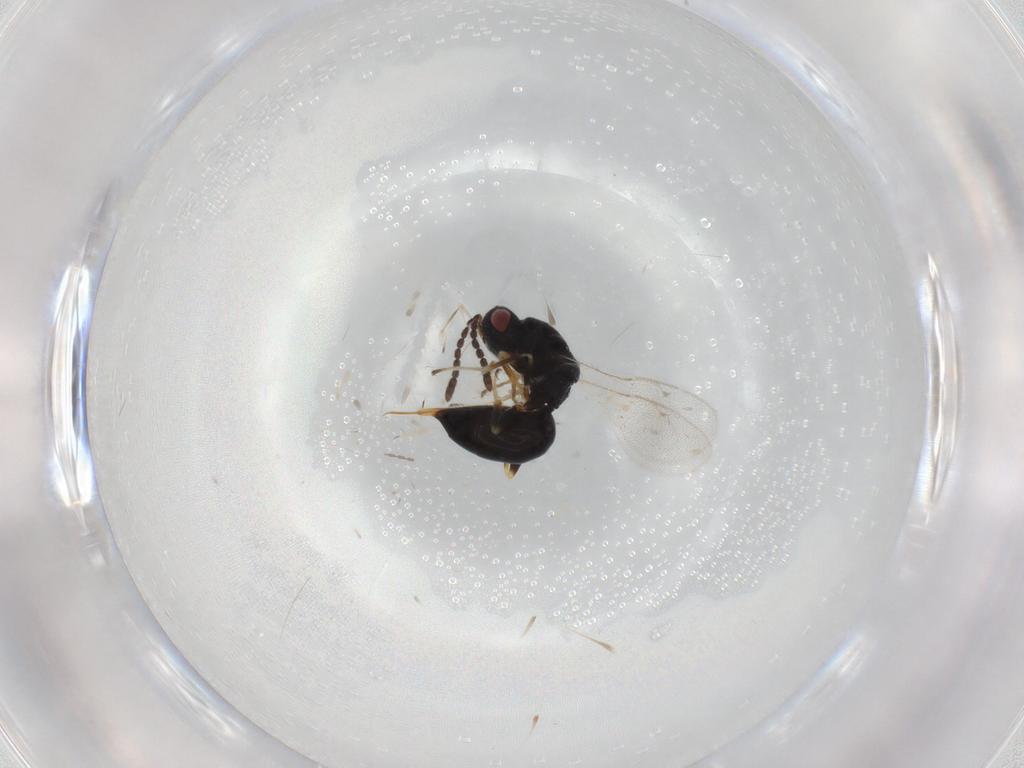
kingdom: Animalia
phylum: Arthropoda
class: Insecta
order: Hymenoptera
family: Eurytomidae
